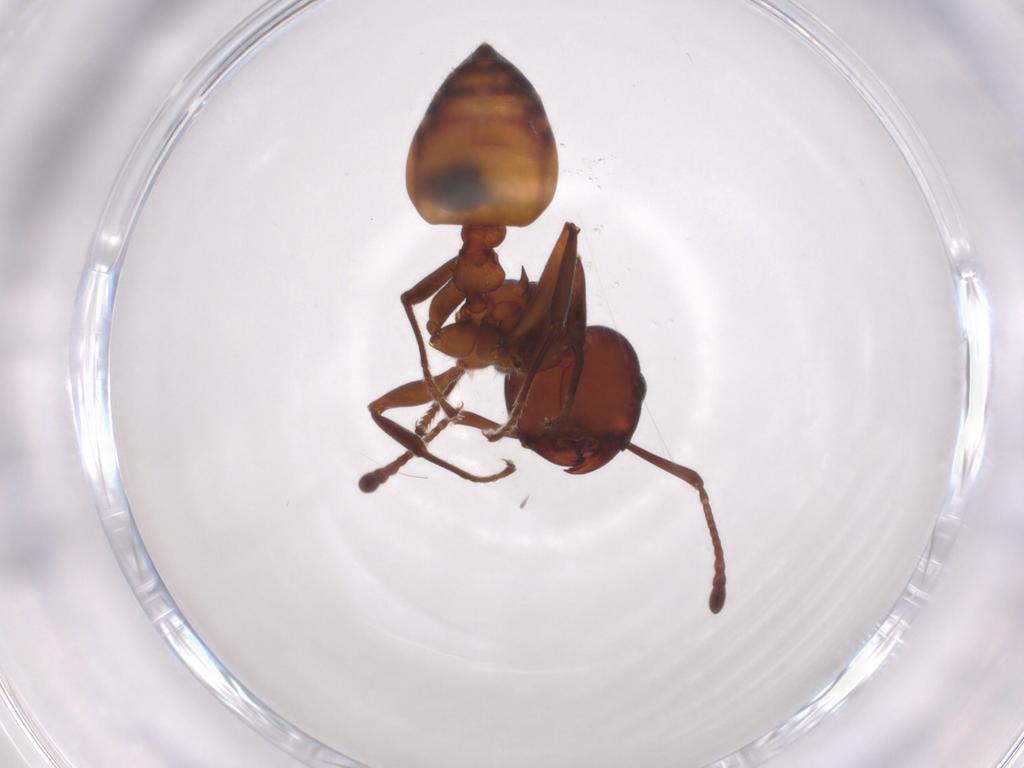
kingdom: Animalia
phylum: Arthropoda
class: Insecta
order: Hymenoptera
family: Formicidae
